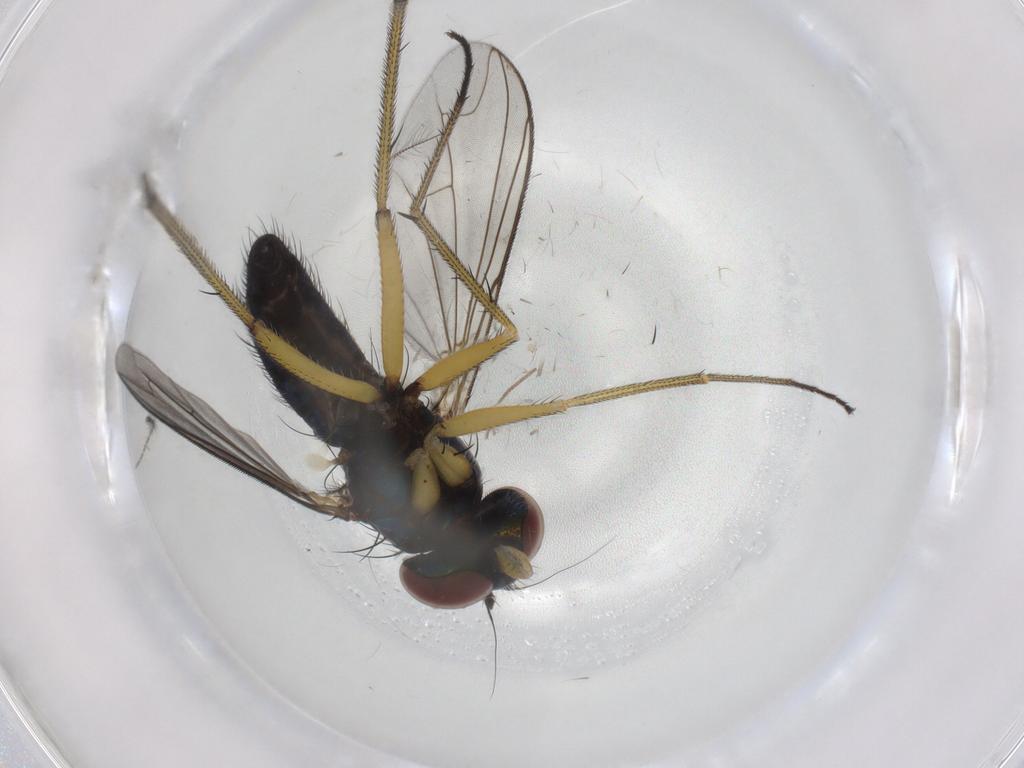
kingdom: Animalia
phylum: Arthropoda
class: Insecta
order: Diptera
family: Dolichopodidae
